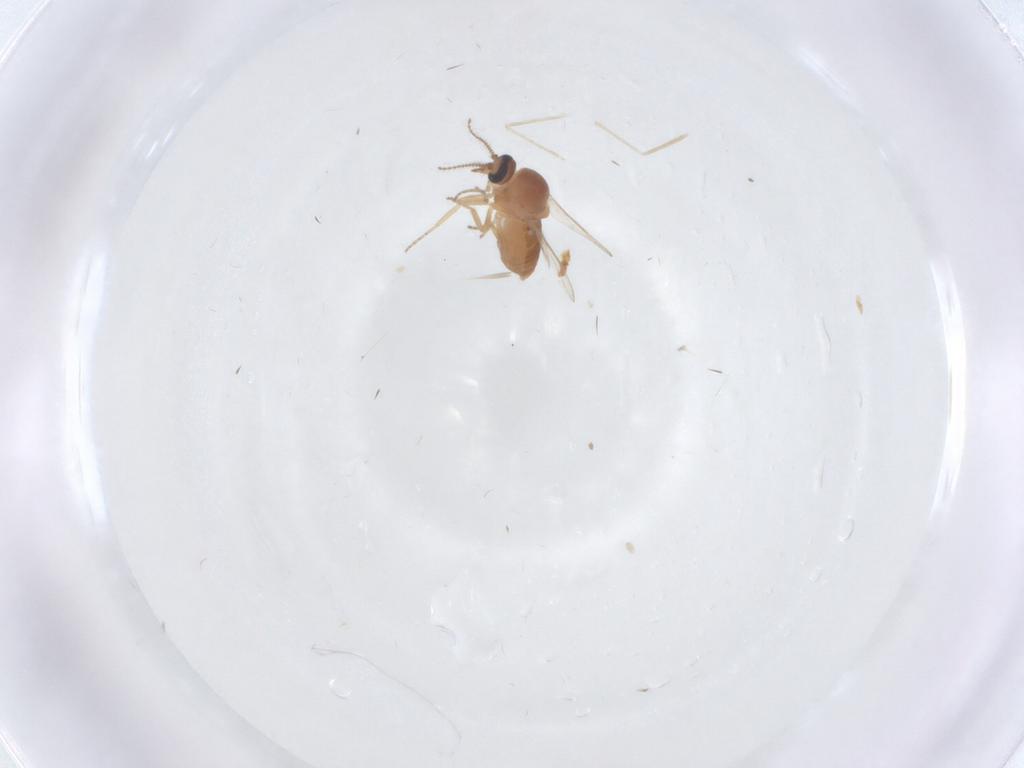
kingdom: Animalia
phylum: Arthropoda
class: Insecta
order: Diptera
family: Ceratopogonidae
